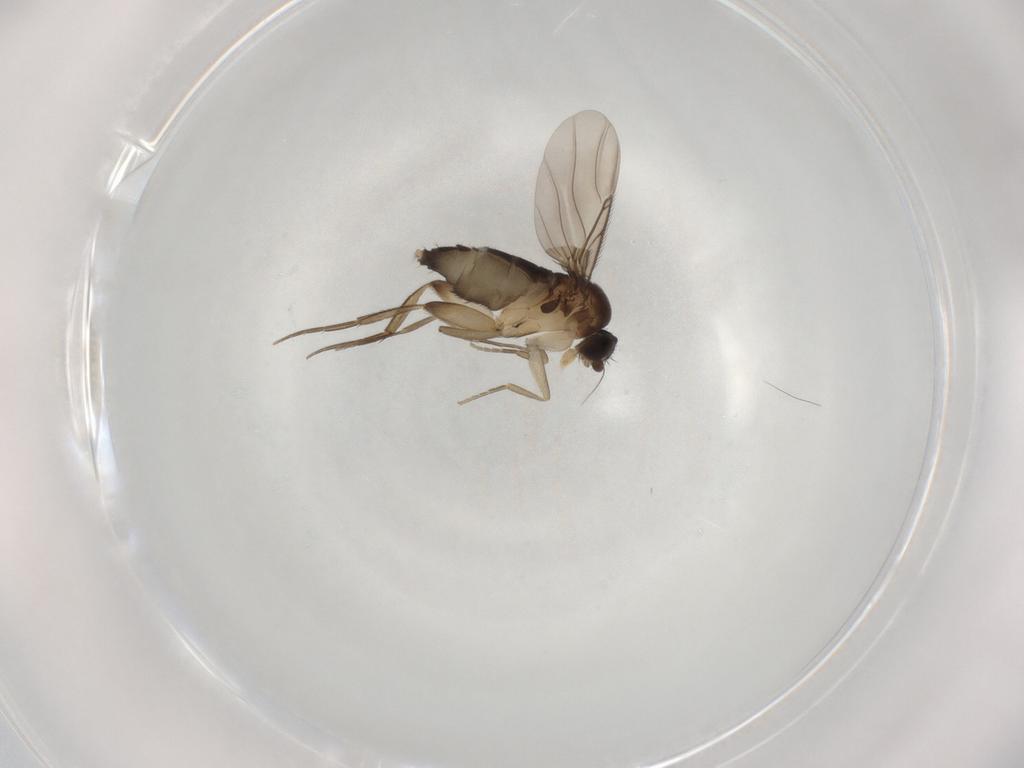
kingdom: Animalia
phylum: Arthropoda
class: Insecta
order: Diptera
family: Phoridae
